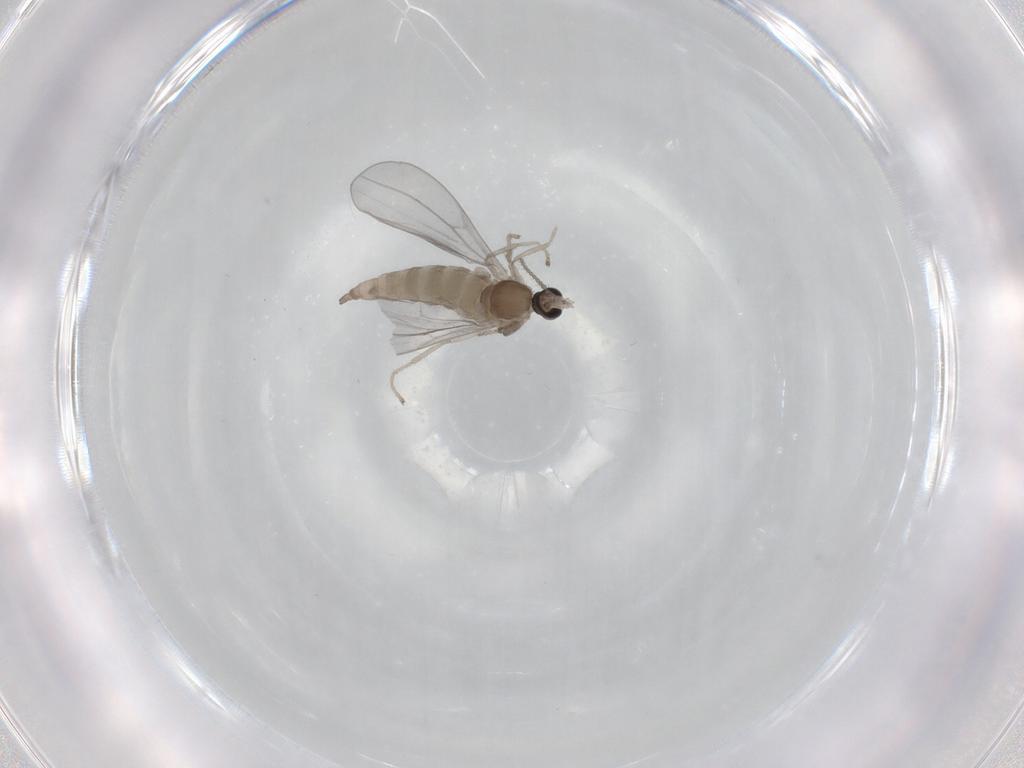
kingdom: Animalia
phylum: Arthropoda
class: Insecta
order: Diptera
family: Cecidomyiidae
